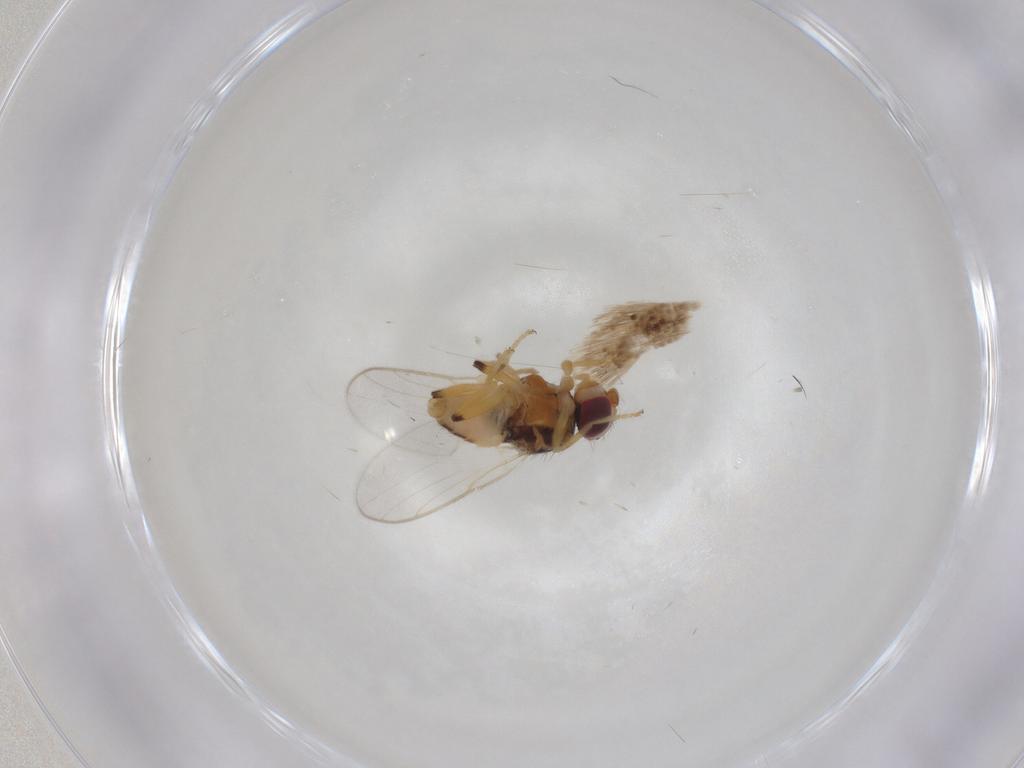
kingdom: Animalia
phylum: Arthropoda
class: Insecta
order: Diptera
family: Chloropidae
